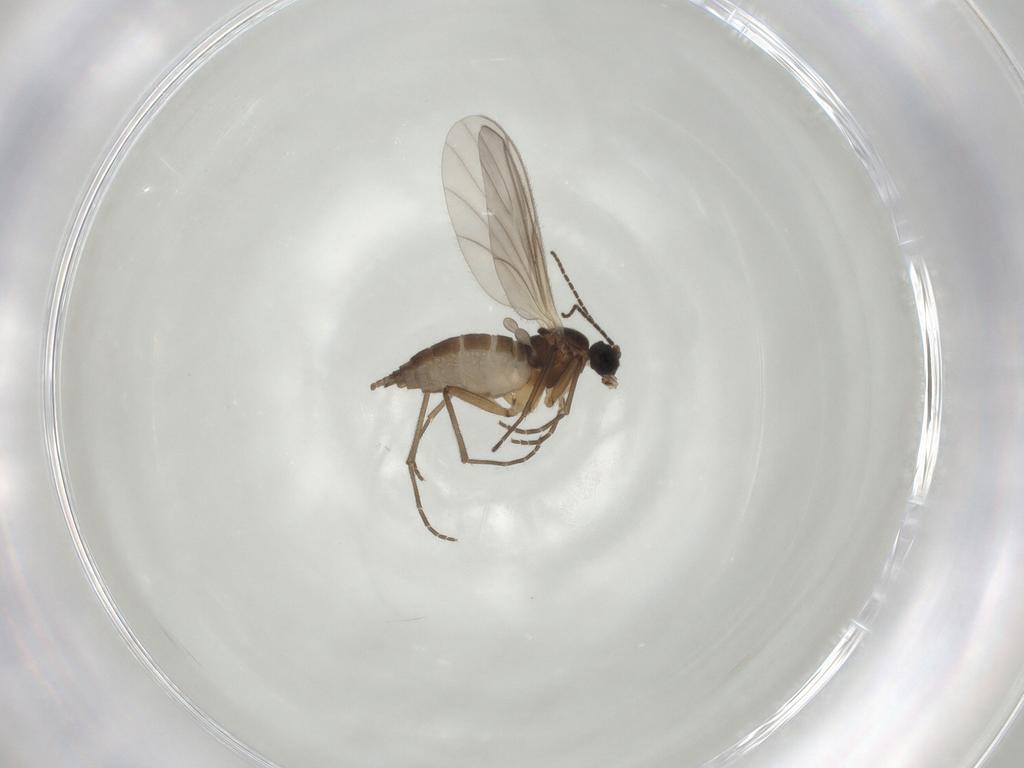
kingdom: Animalia
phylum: Arthropoda
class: Insecta
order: Diptera
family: Sciaridae
